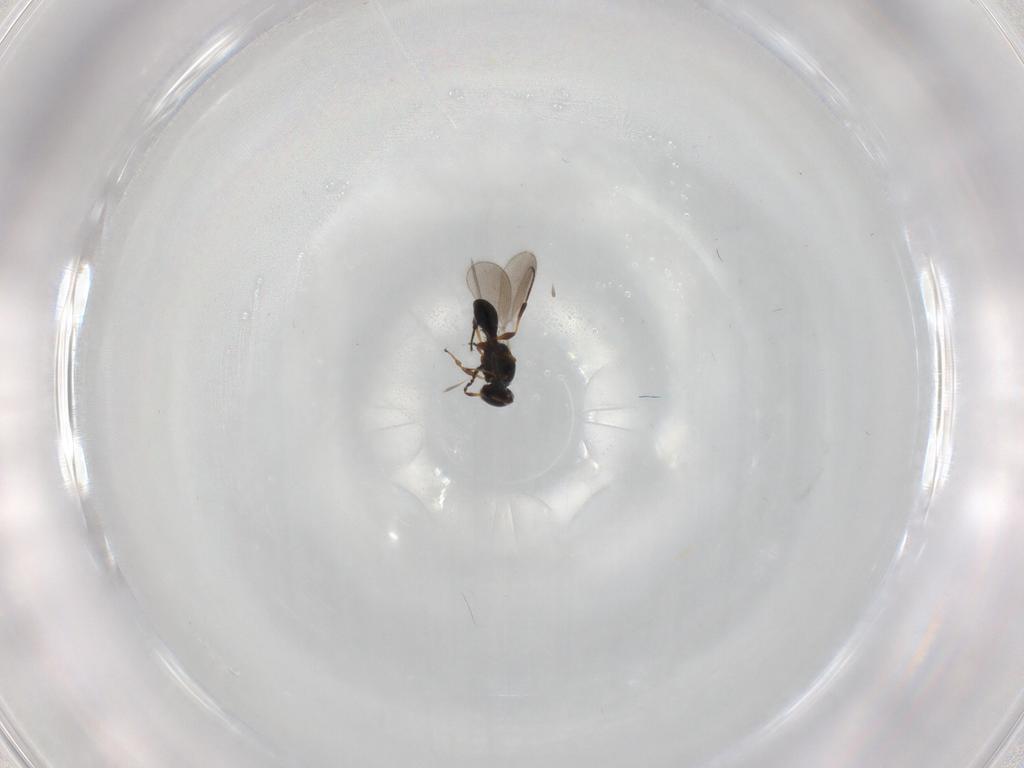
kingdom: Animalia
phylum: Arthropoda
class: Insecta
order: Hymenoptera
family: Platygastridae
